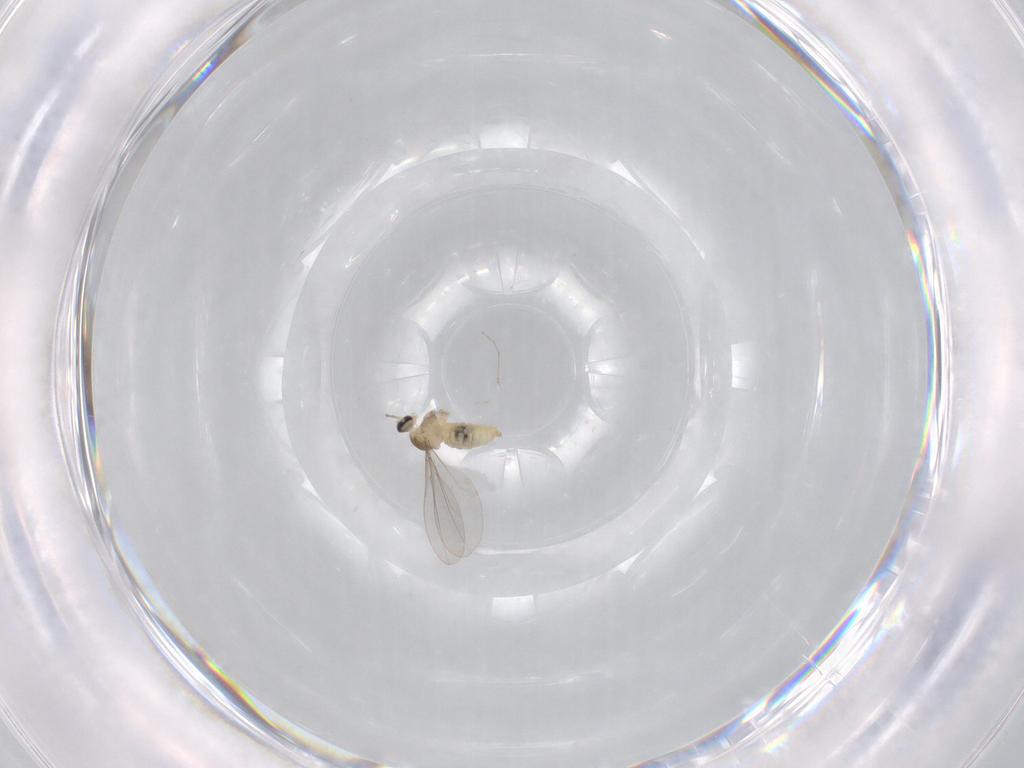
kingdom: Animalia
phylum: Arthropoda
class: Insecta
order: Diptera
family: Cecidomyiidae
